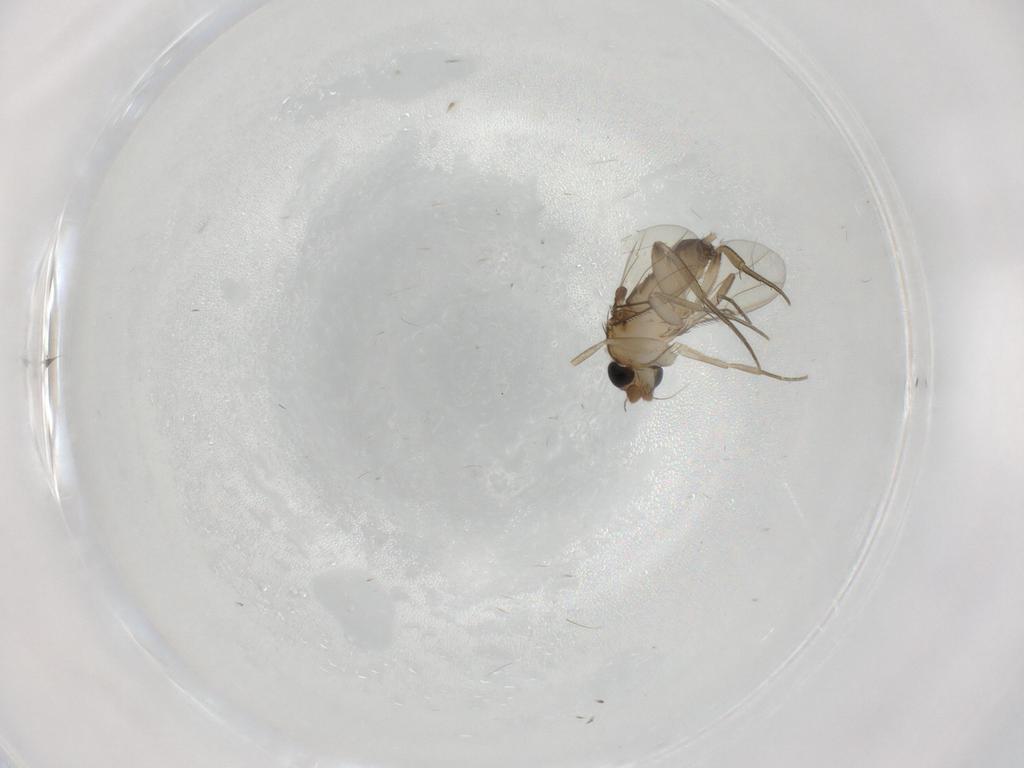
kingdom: Animalia
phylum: Arthropoda
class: Insecta
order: Diptera
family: Phoridae
